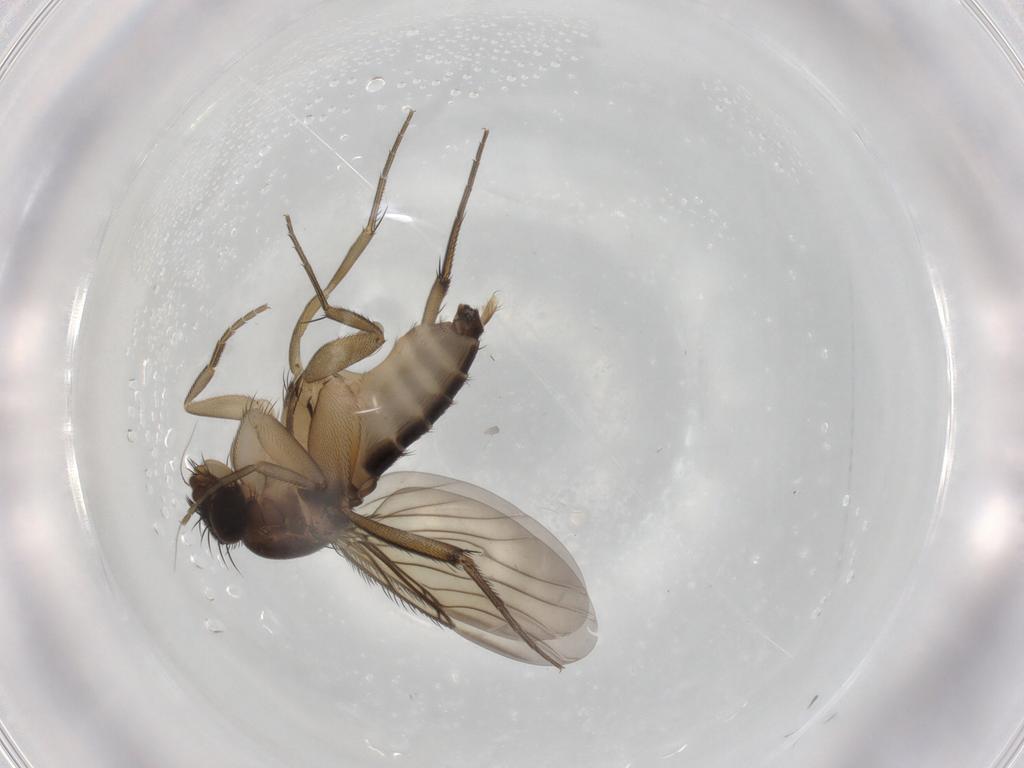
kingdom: Animalia
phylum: Arthropoda
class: Insecta
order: Diptera
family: Phoridae
